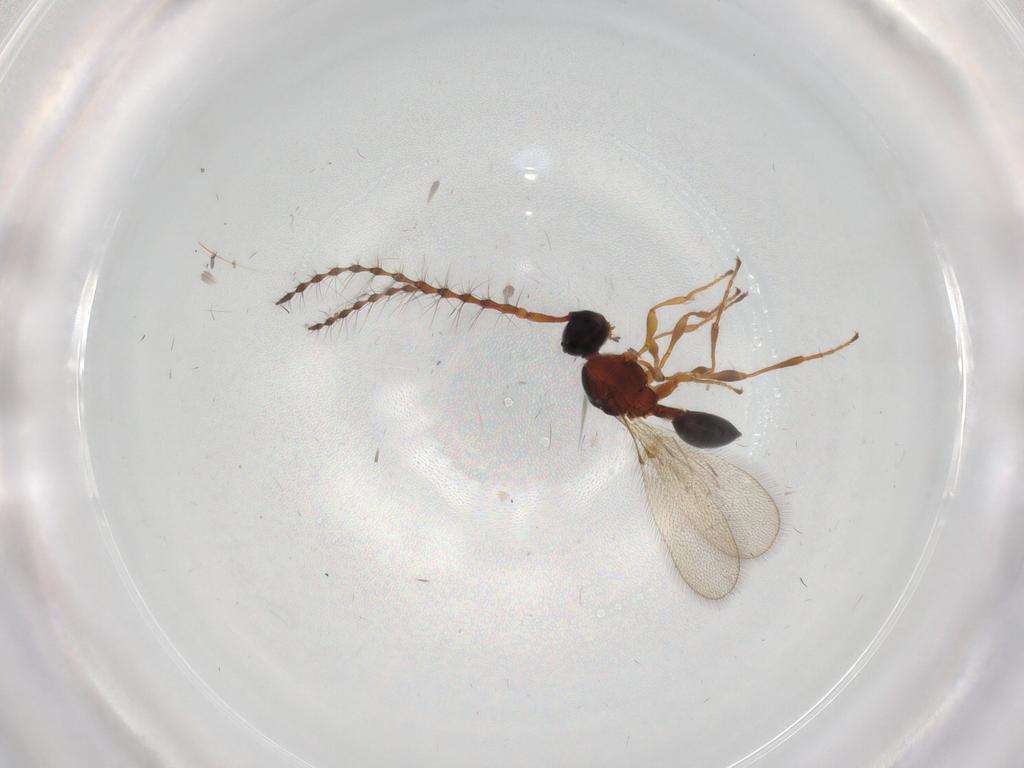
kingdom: Animalia
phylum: Arthropoda
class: Insecta
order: Hymenoptera
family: Diapriidae
